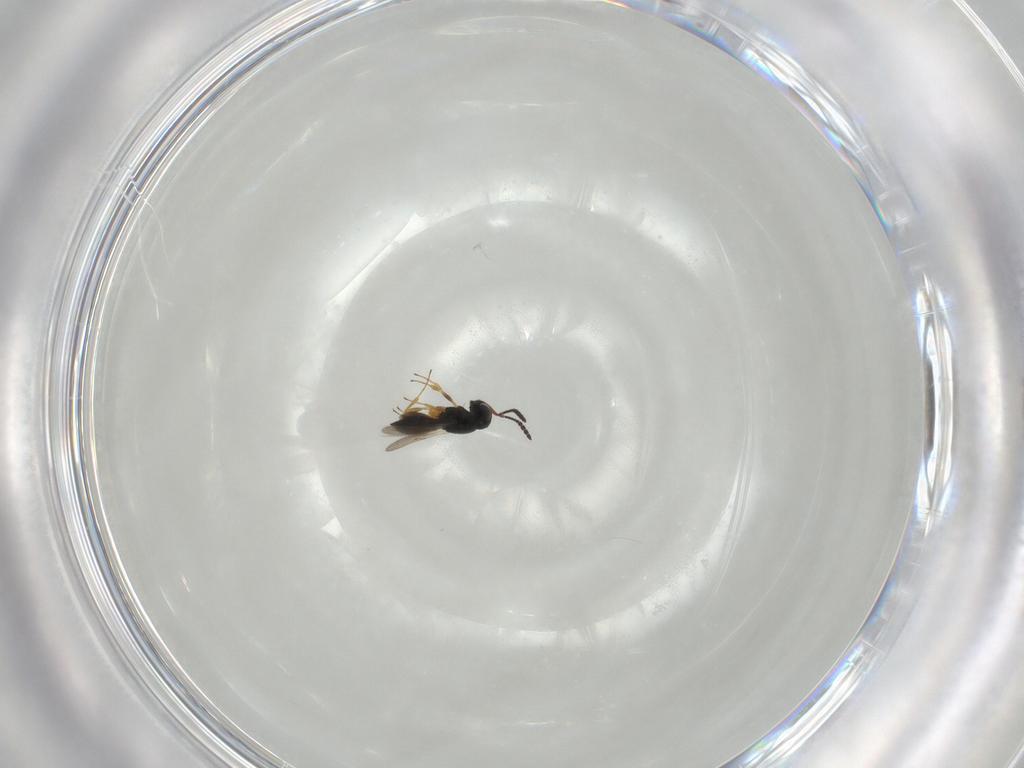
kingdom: Animalia
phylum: Arthropoda
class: Insecta
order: Hymenoptera
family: Scelionidae
